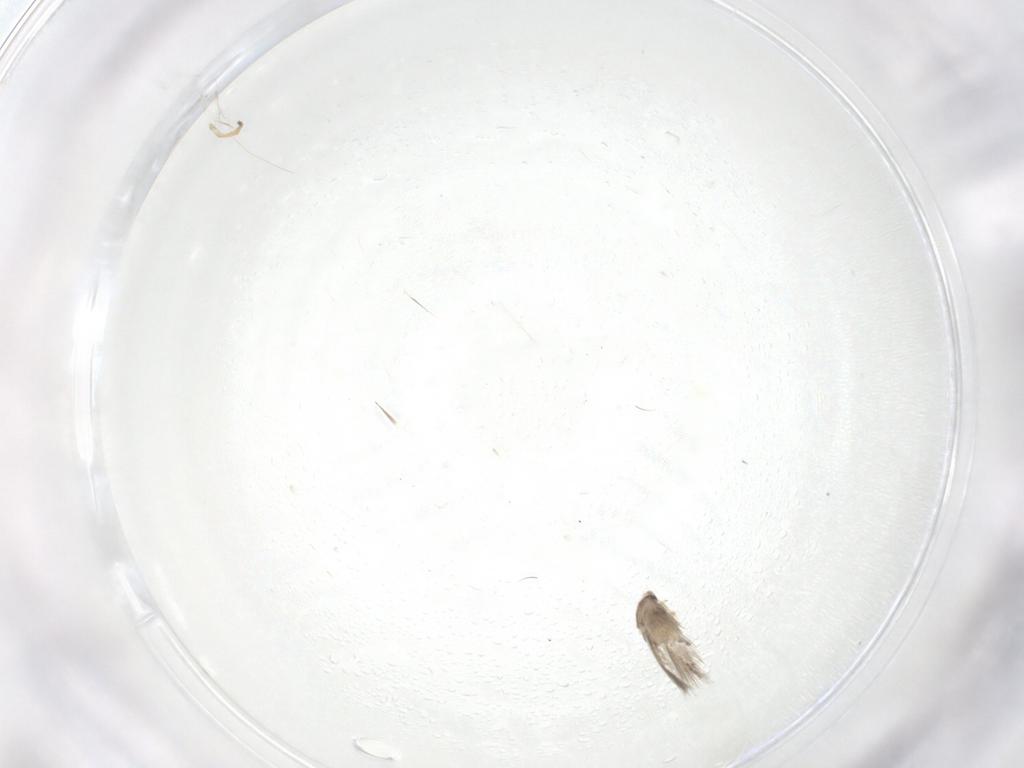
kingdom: Animalia
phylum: Arthropoda
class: Insecta
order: Lepidoptera
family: Nepticulidae
